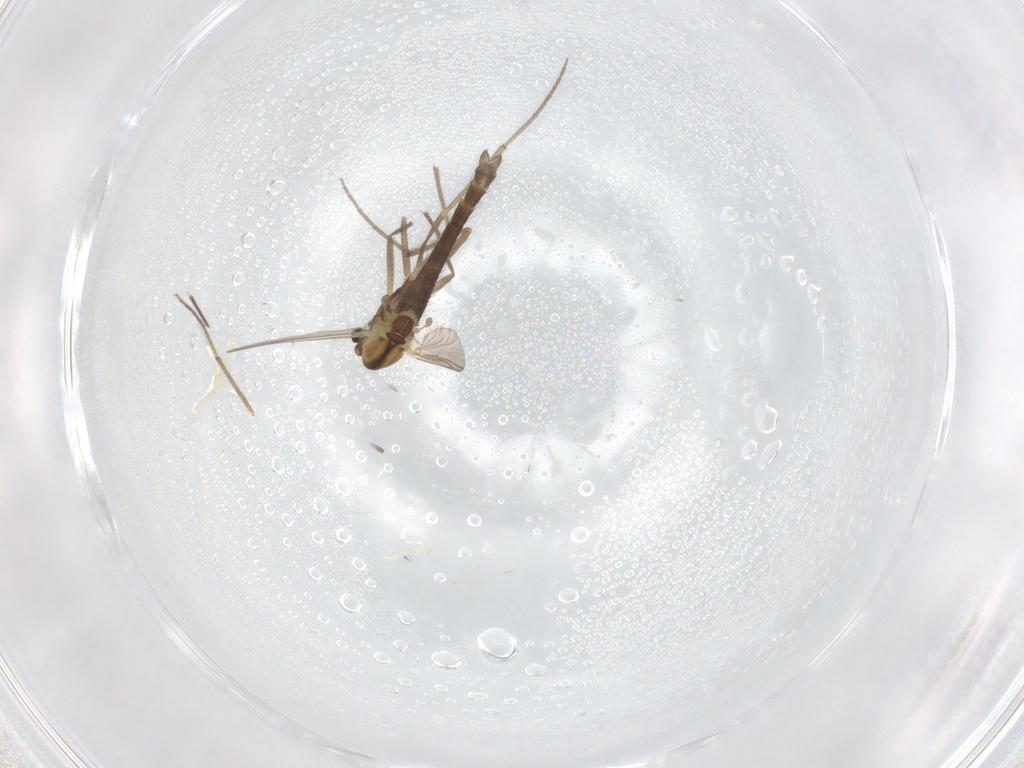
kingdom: Animalia
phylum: Arthropoda
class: Insecta
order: Diptera
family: Chironomidae
